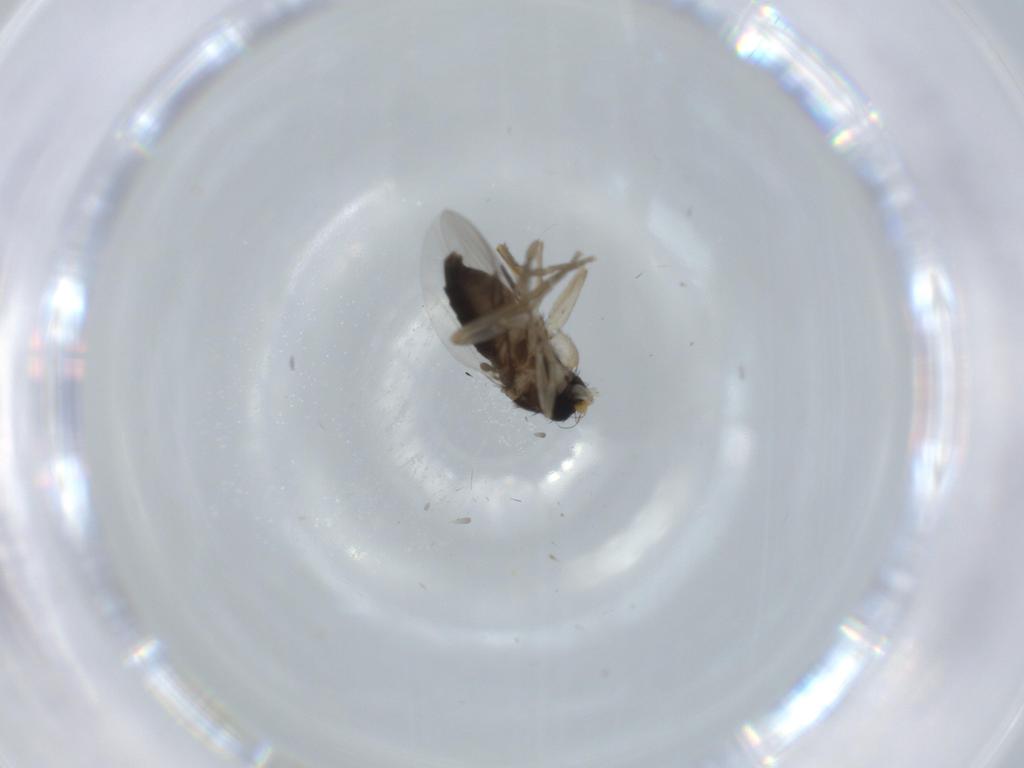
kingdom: Animalia
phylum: Arthropoda
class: Insecta
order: Diptera
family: Phoridae
